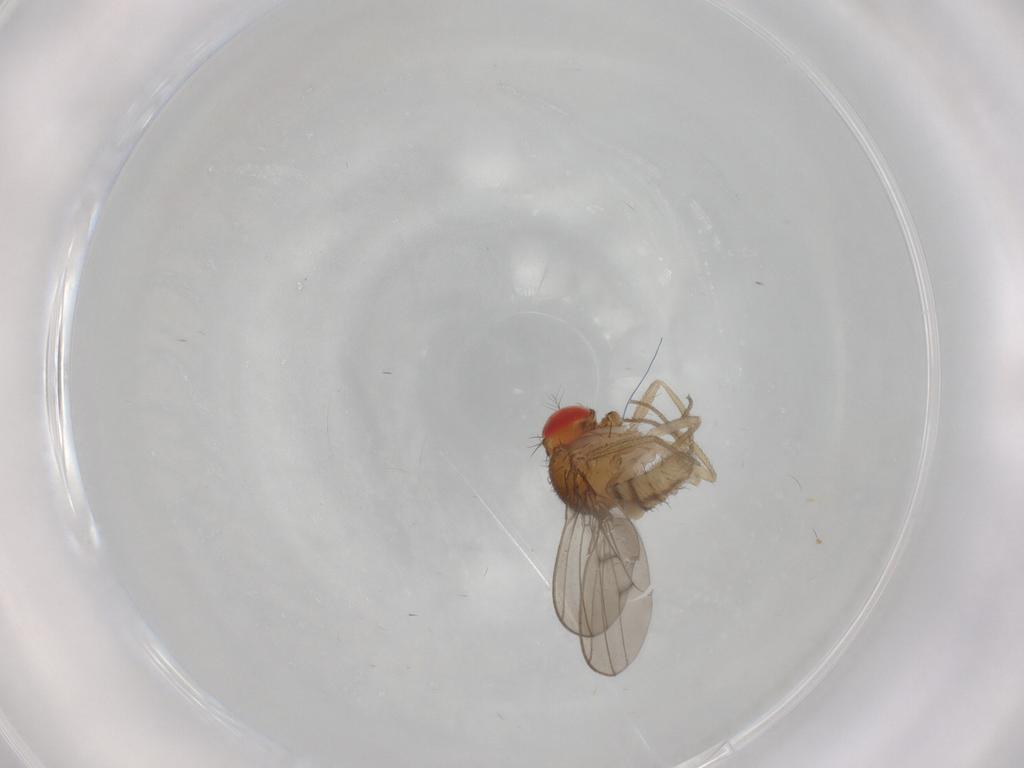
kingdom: Animalia
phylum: Arthropoda
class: Insecta
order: Diptera
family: Drosophilidae
